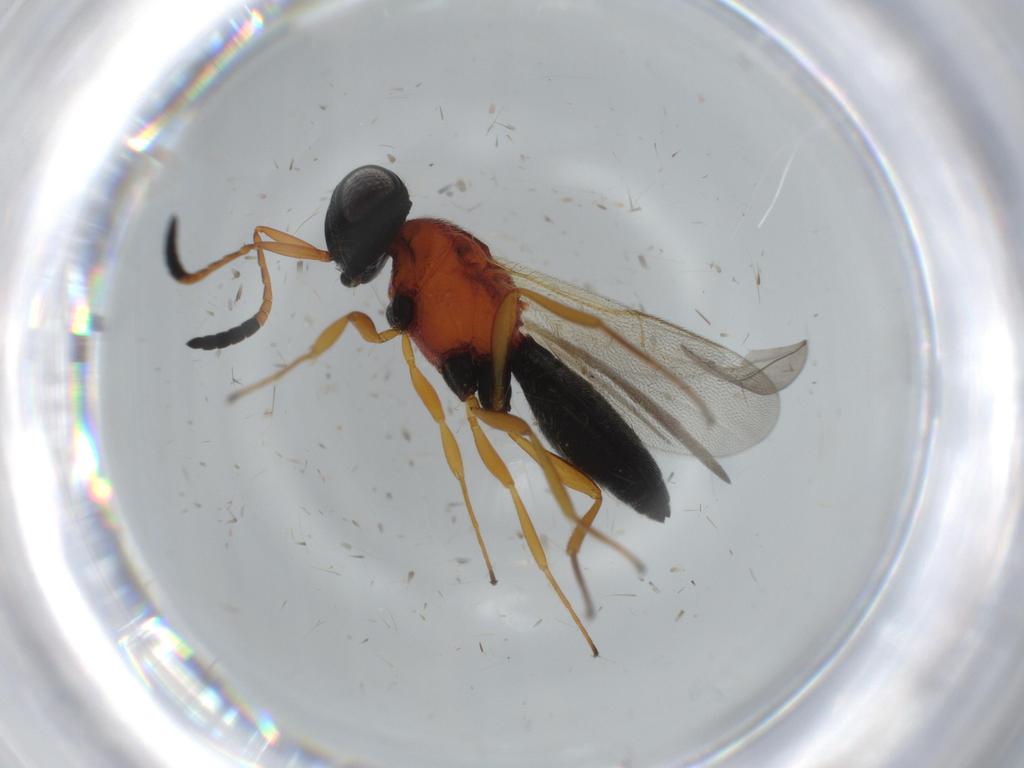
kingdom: Animalia
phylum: Arthropoda
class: Insecta
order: Hymenoptera
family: Scelionidae
